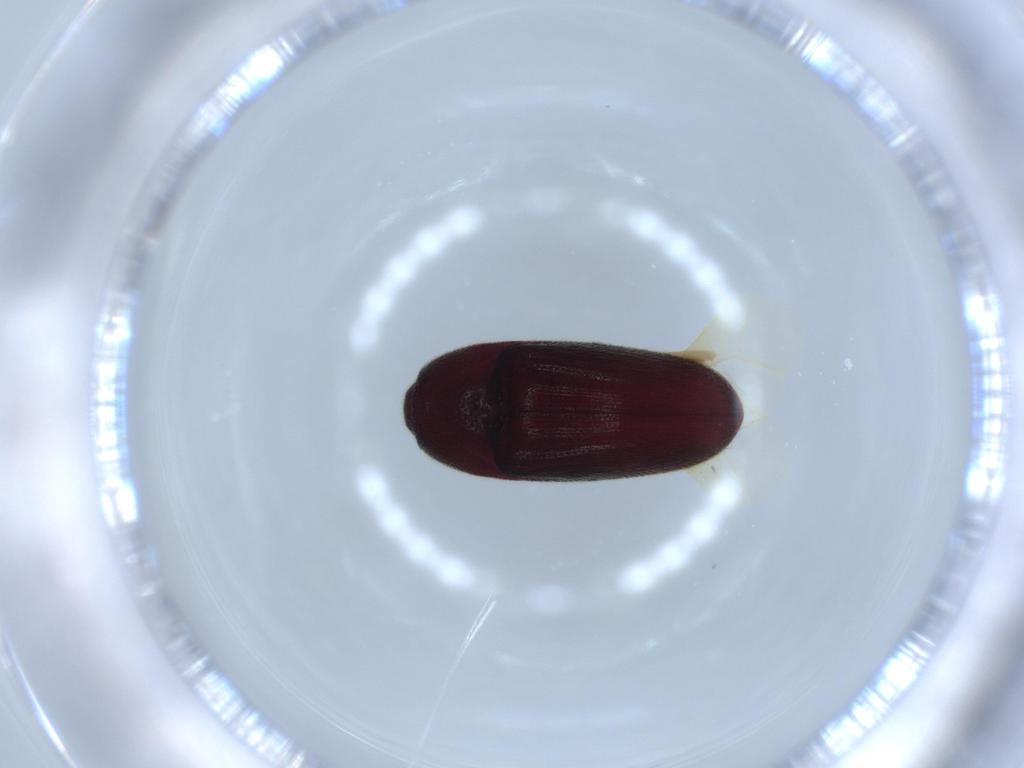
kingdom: Animalia
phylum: Arthropoda
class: Insecta
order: Coleoptera
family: Throscidae
